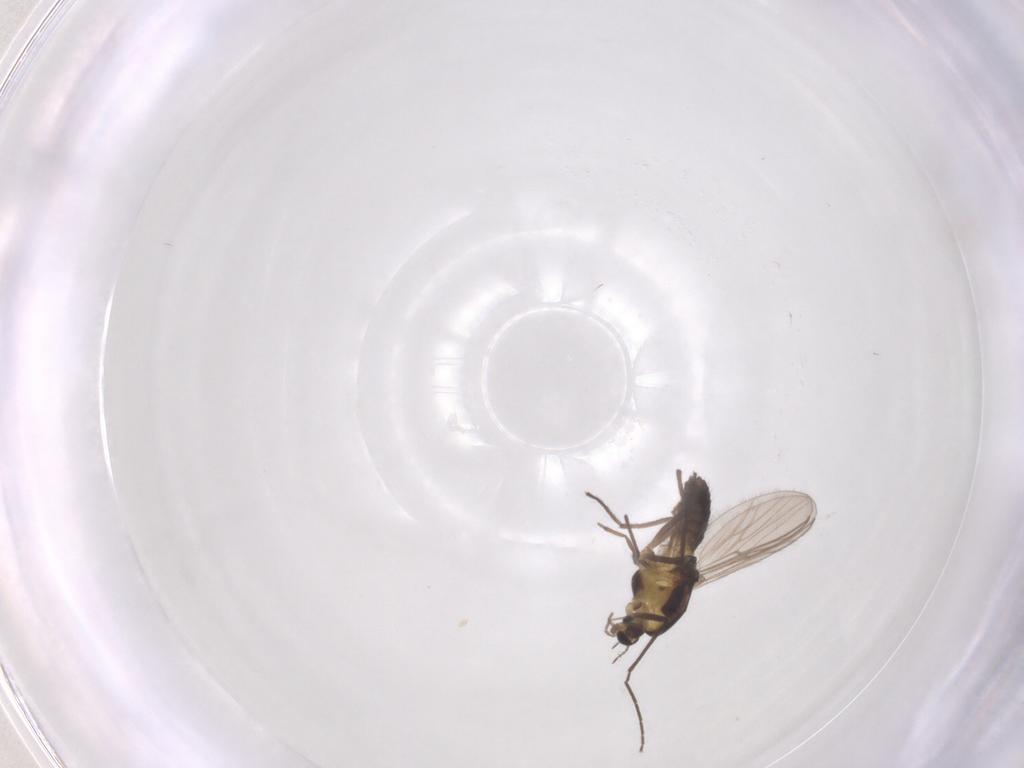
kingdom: Animalia
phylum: Arthropoda
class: Insecta
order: Diptera
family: Chironomidae
